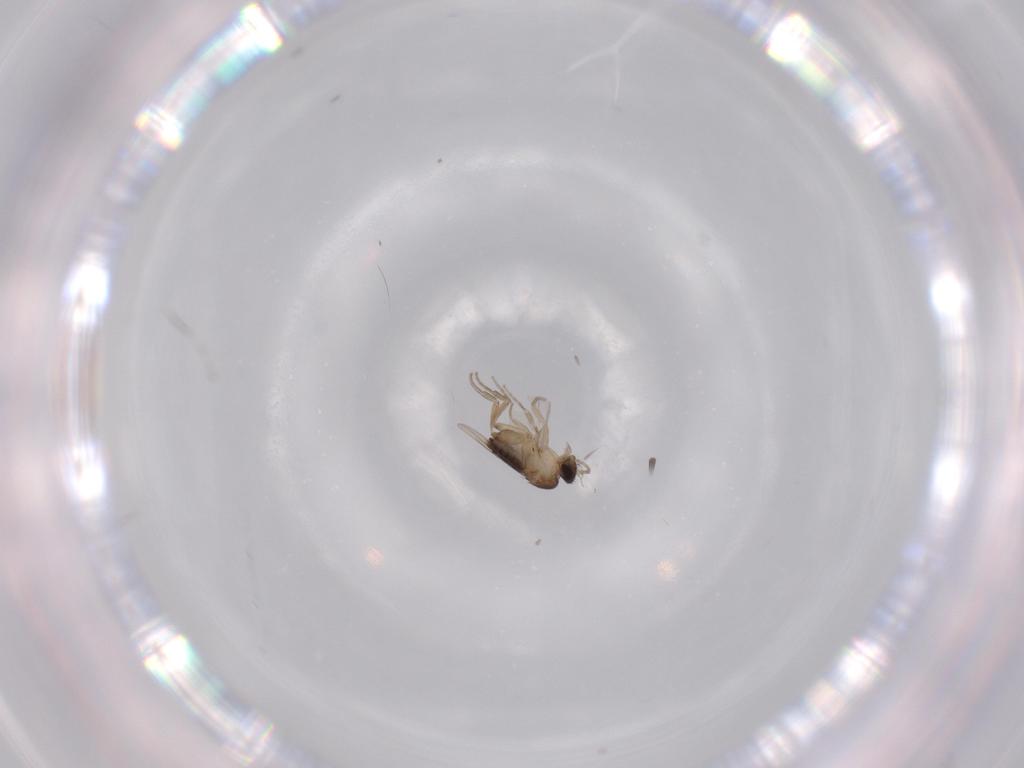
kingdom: Animalia
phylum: Arthropoda
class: Insecta
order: Diptera
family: Phoridae
